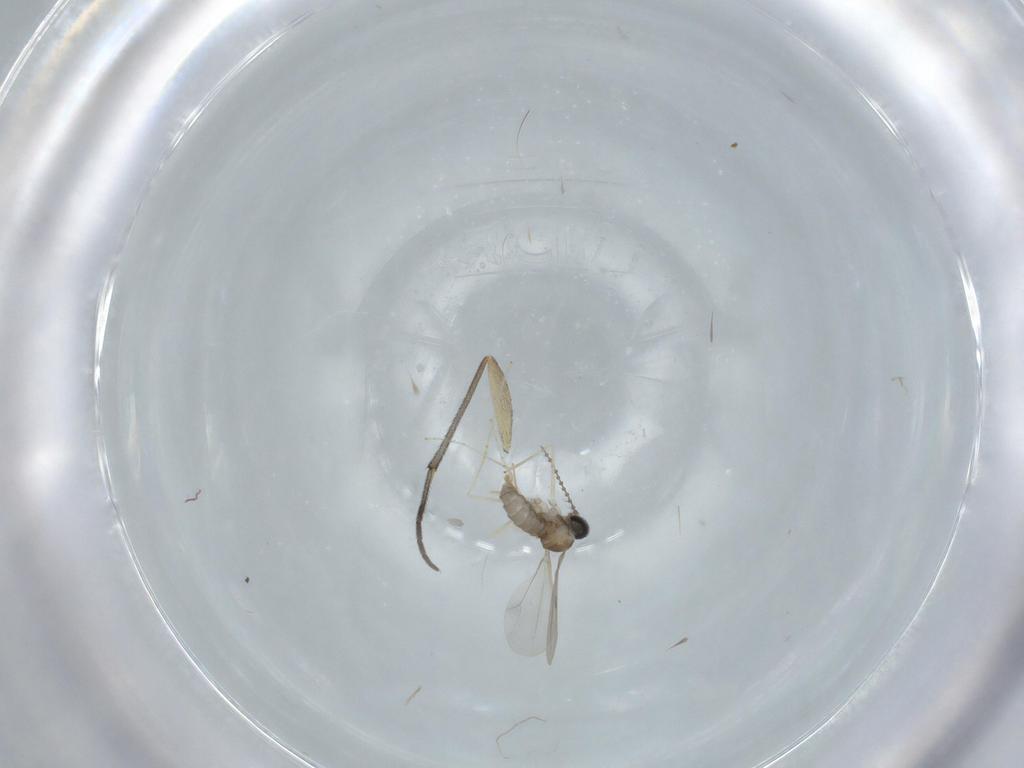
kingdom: Animalia
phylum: Arthropoda
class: Insecta
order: Diptera
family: Sciaridae
